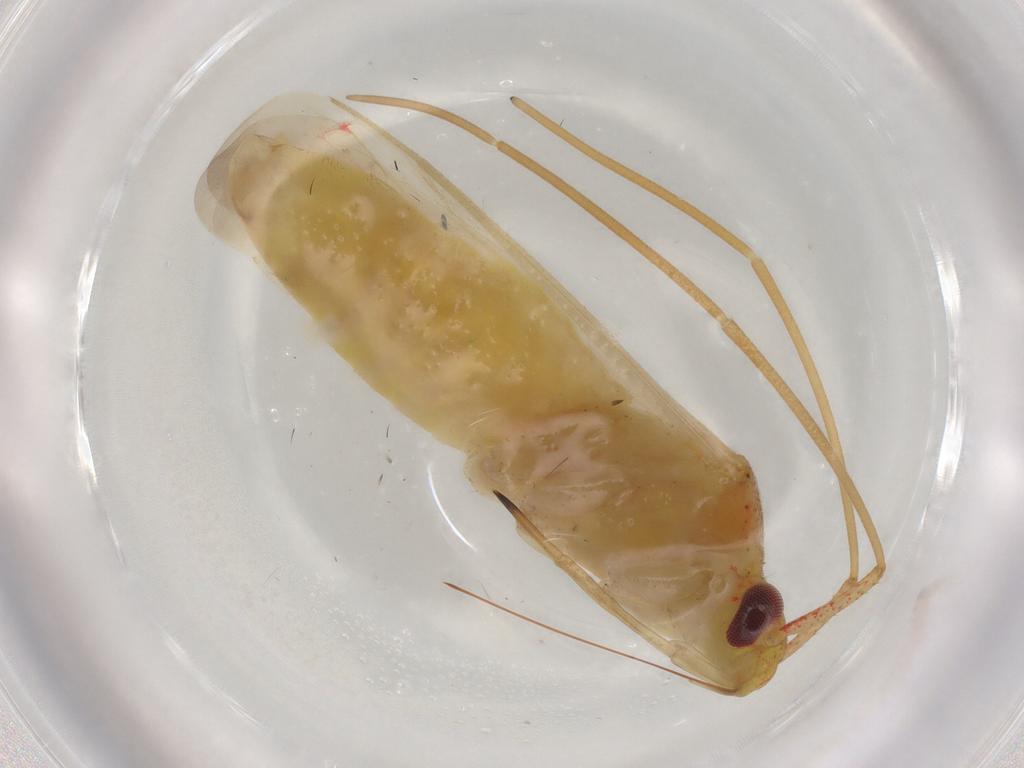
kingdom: Animalia
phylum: Arthropoda
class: Insecta
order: Hemiptera
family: Miridae
